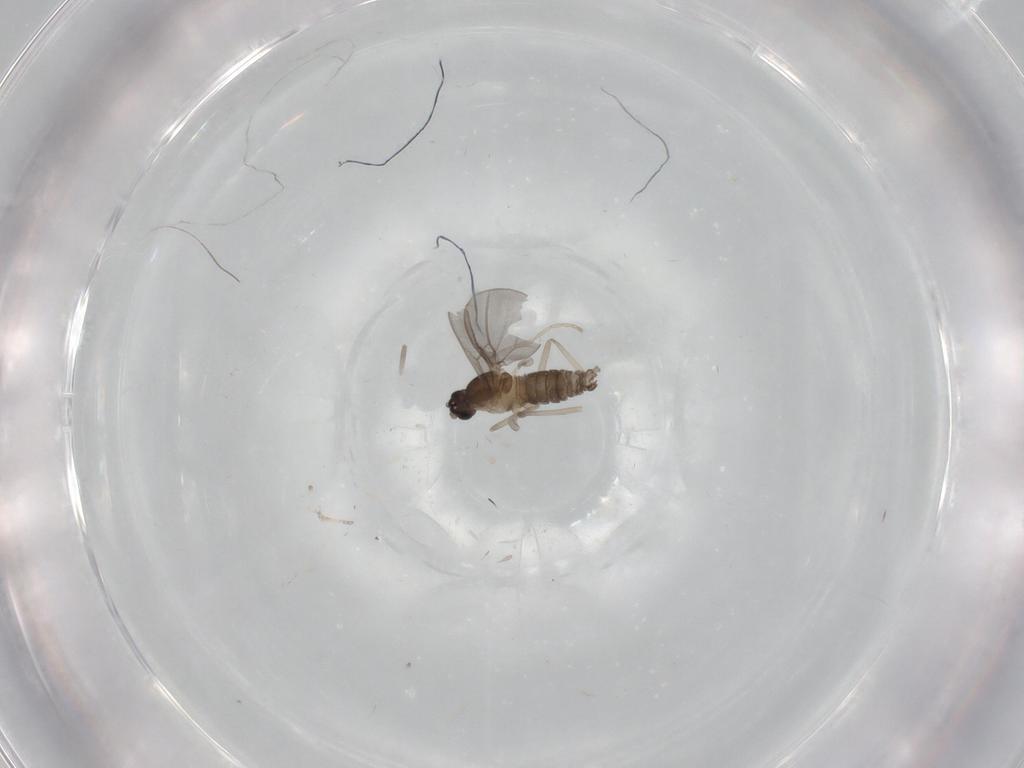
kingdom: Animalia
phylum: Arthropoda
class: Insecta
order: Diptera
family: Cecidomyiidae
